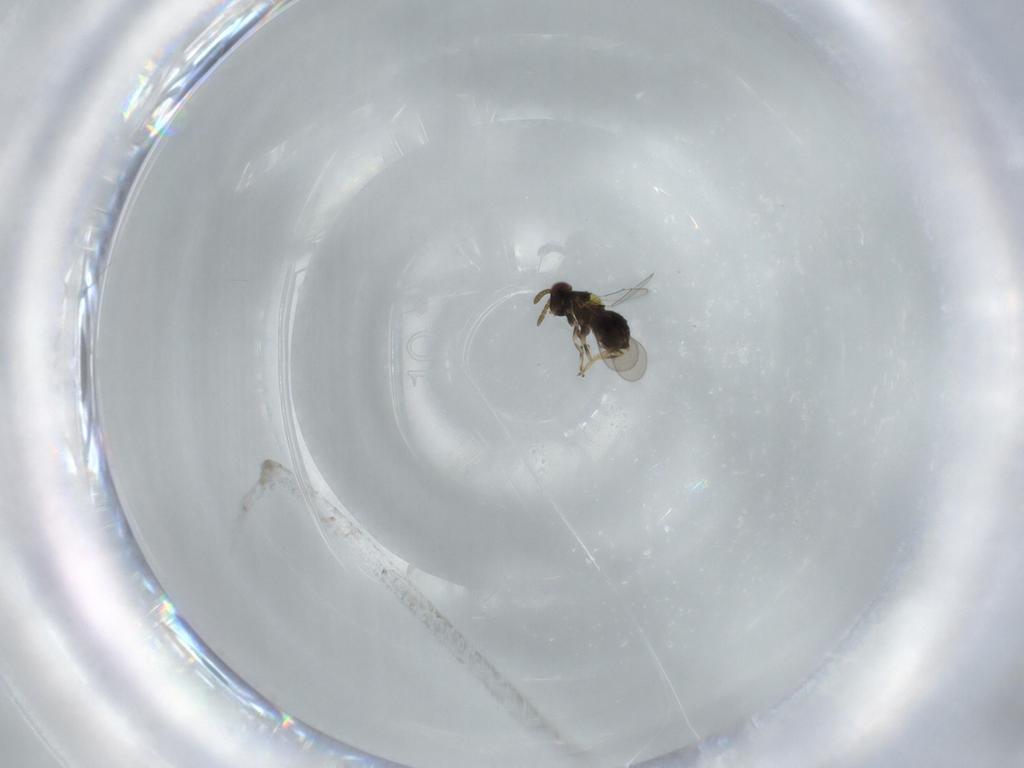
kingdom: Animalia
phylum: Arthropoda
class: Insecta
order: Hymenoptera
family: Aphelinidae
